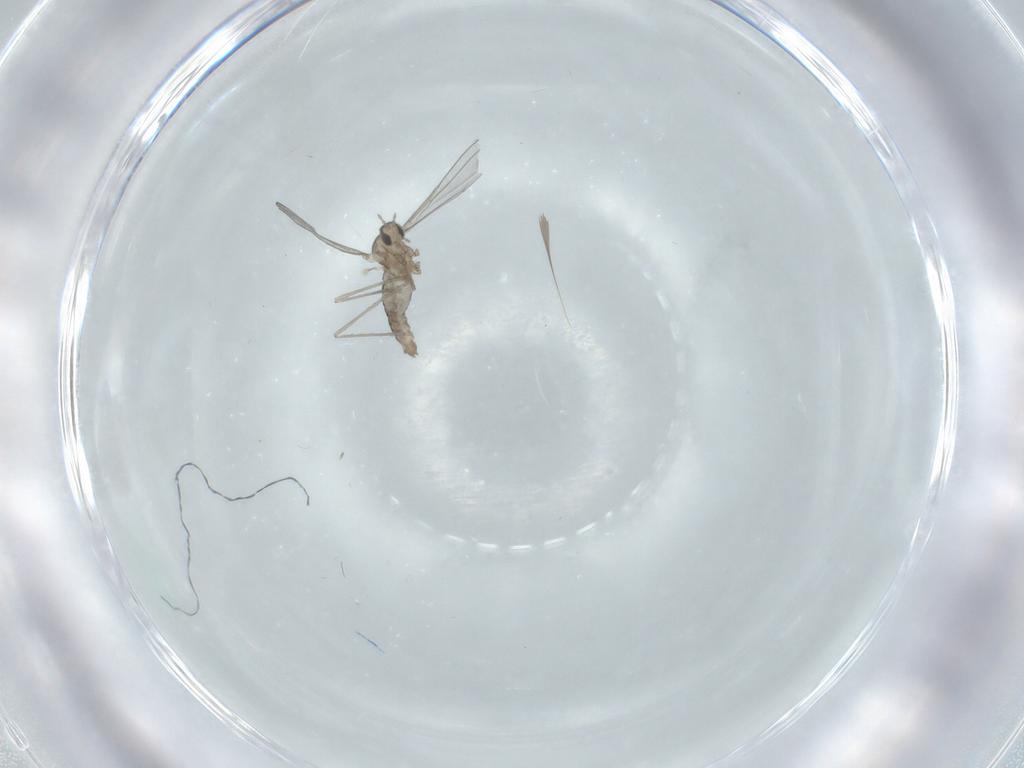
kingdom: Animalia
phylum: Arthropoda
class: Insecta
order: Diptera
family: Cecidomyiidae
